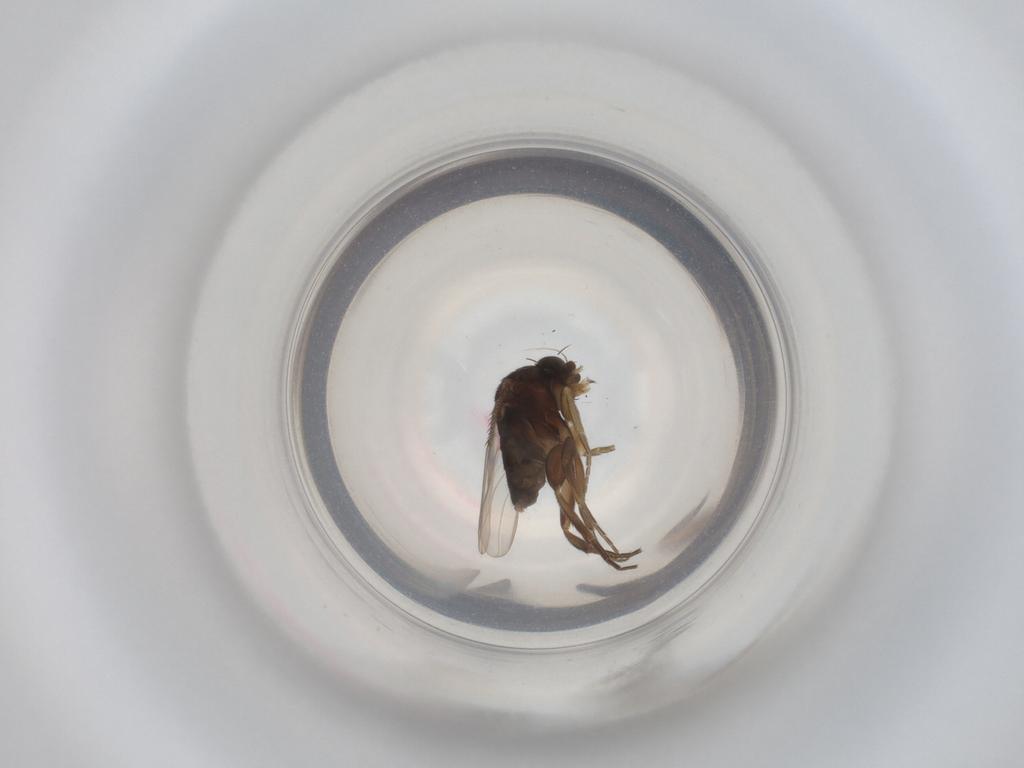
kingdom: Animalia
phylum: Arthropoda
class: Insecta
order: Diptera
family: Phoridae
